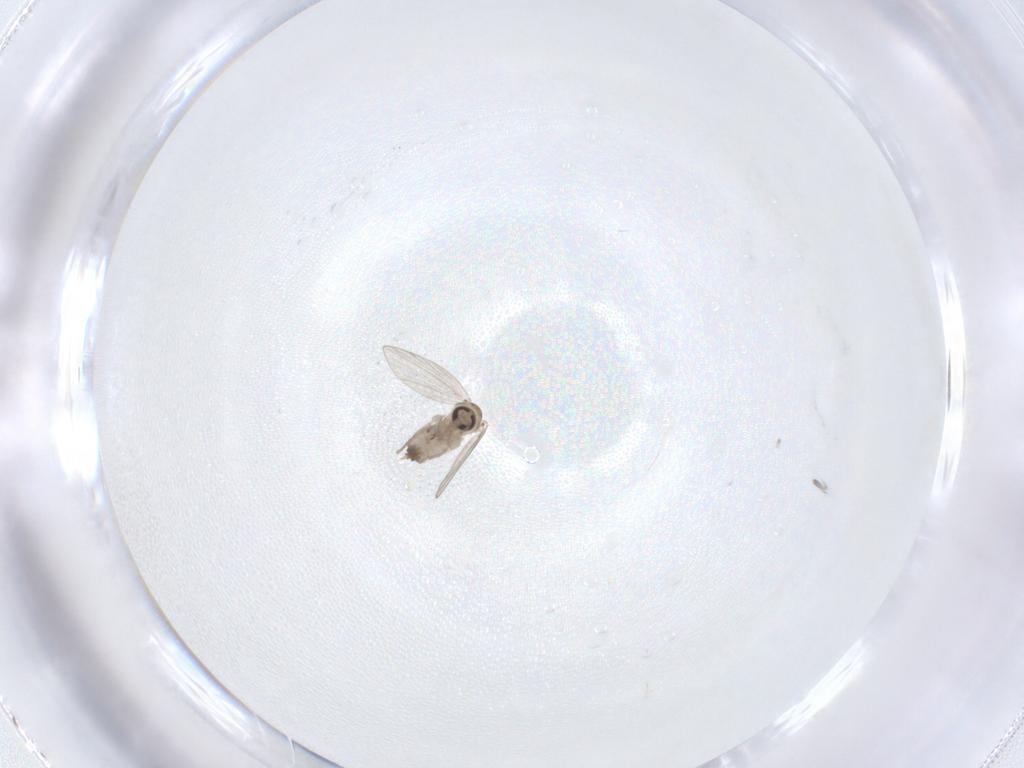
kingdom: Animalia
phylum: Arthropoda
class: Insecta
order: Diptera
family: Psychodidae
